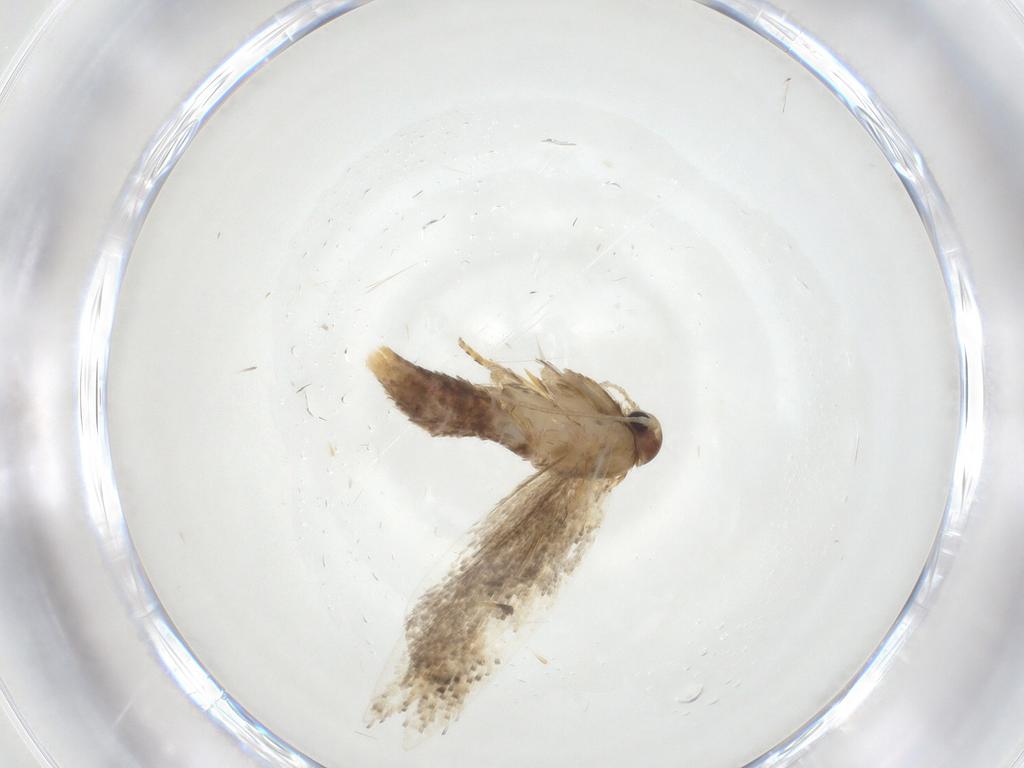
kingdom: Animalia
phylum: Arthropoda
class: Insecta
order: Lepidoptera
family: Elachistidae
